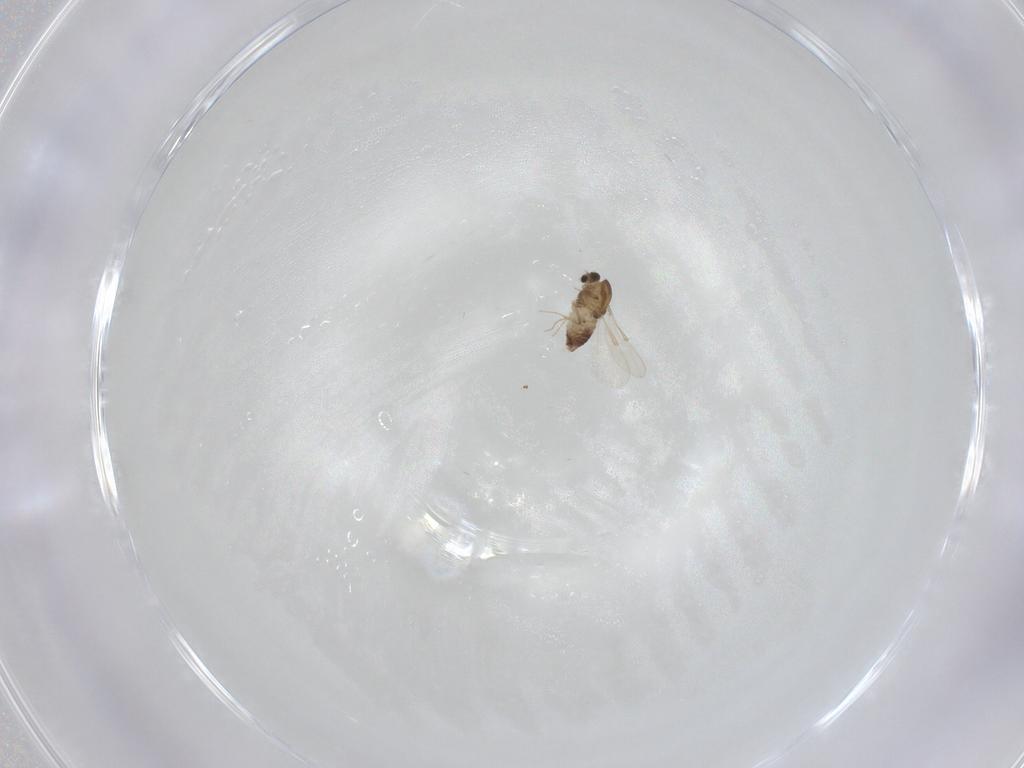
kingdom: Animalia
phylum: Arthropoda
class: Insecta
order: Diptera
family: Chironomidae
